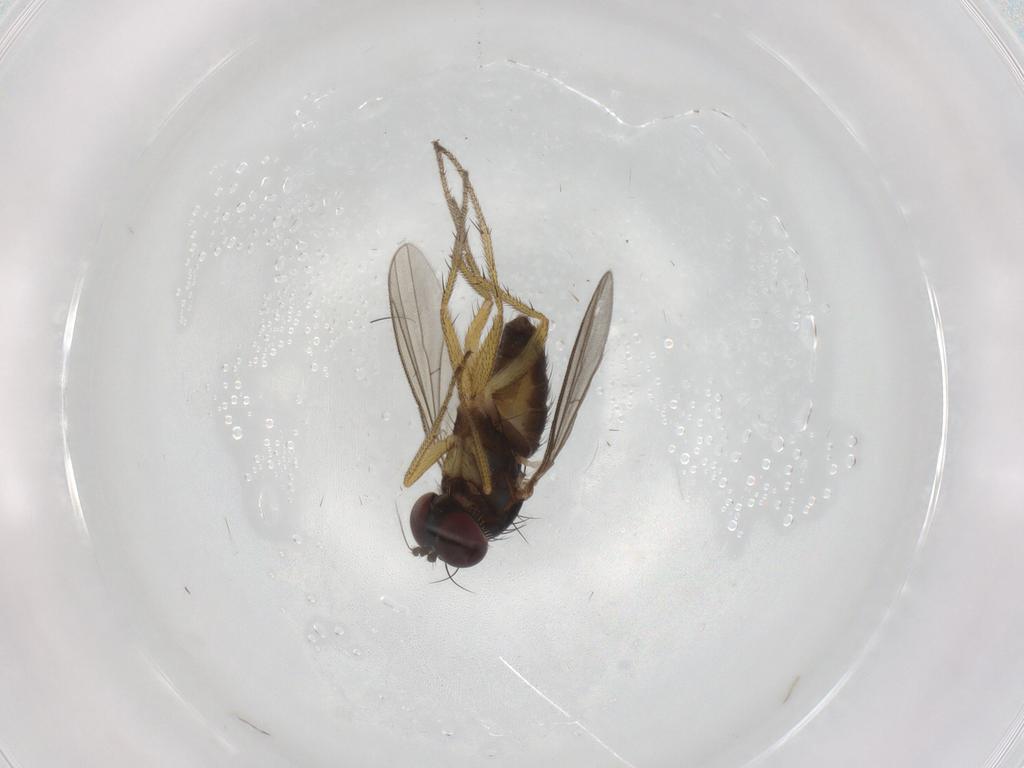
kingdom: Animalia
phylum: Arthropoda
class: Insecta
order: Diptera
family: Dolichopodidae
